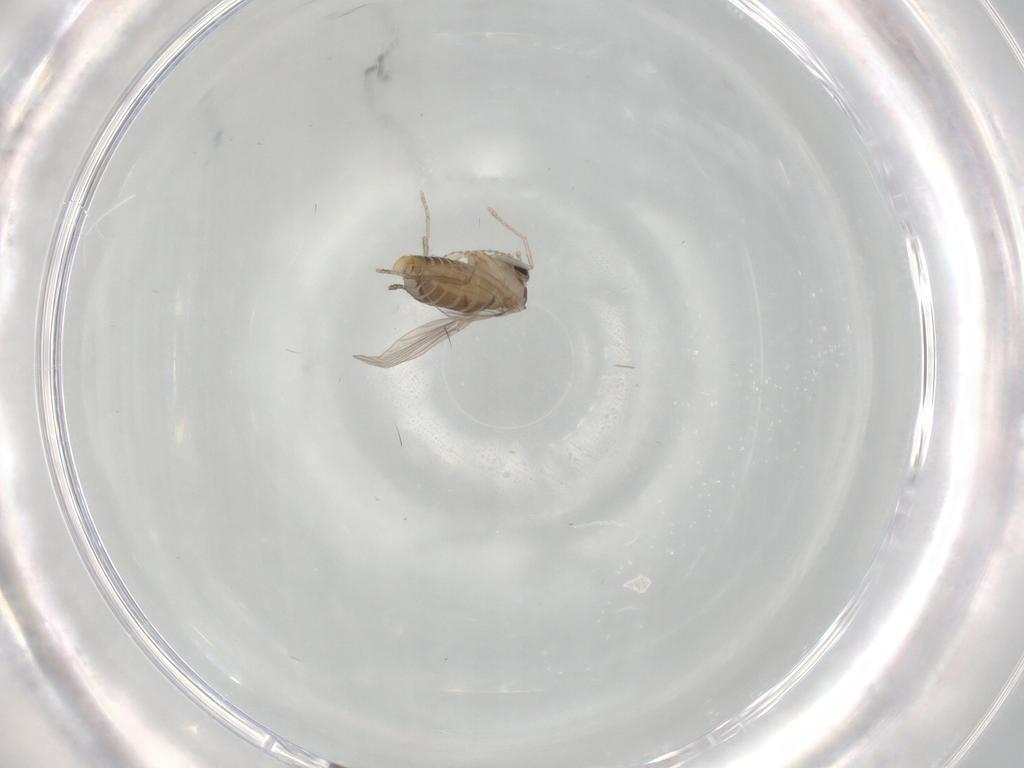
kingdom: Animalia
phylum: Arthropoda
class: Insecta
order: Diptera
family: Psychodidae
